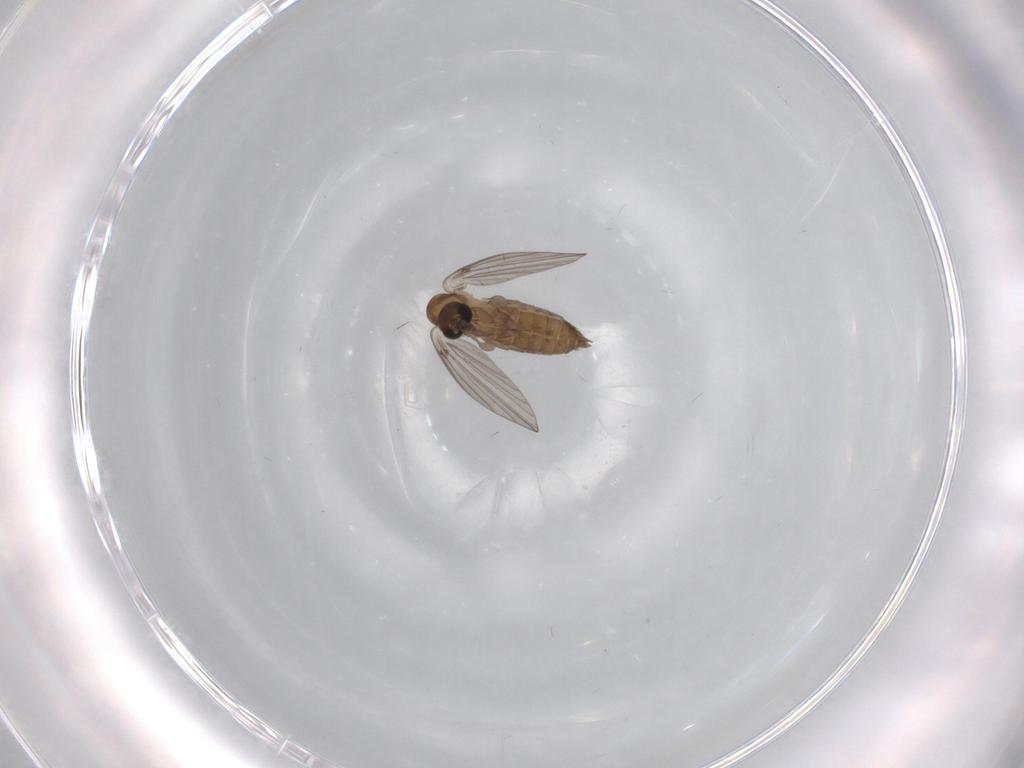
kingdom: Animalia
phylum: Arthropoda
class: Insecta
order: Diptera
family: Psychodidae
